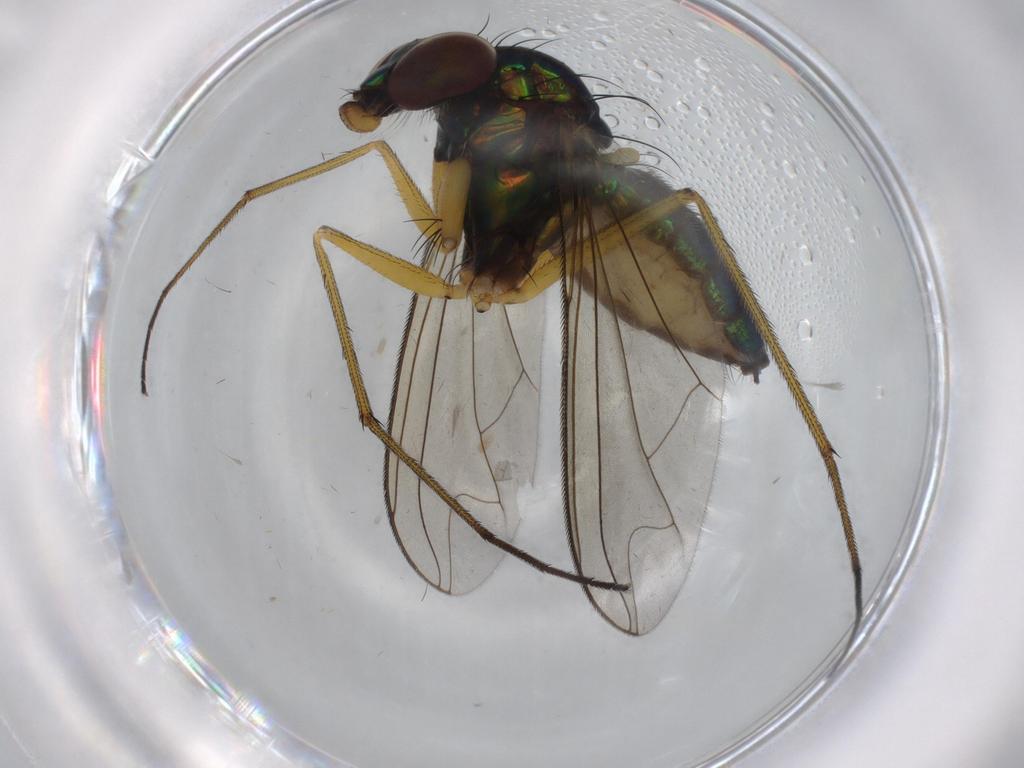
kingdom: Animalia
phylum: Arthropoda
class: Insecta
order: Diptera
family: Dolichopodidae
